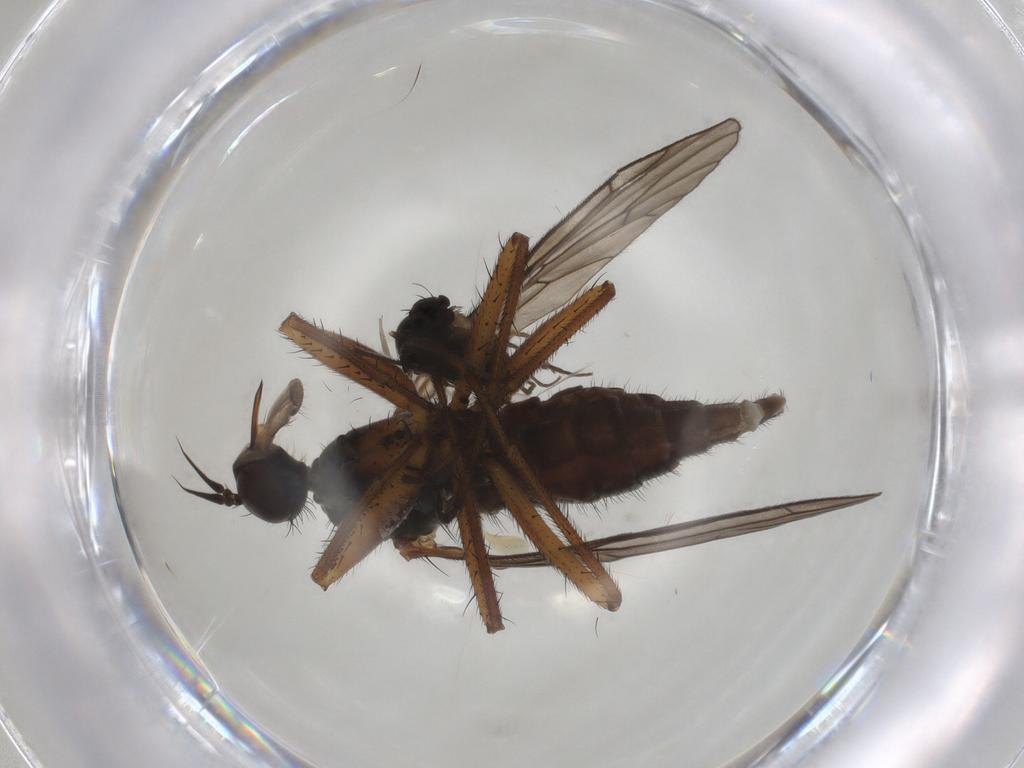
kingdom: Animalia
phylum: Arthropoda
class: Insecta
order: Diptera
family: Syrphidae
